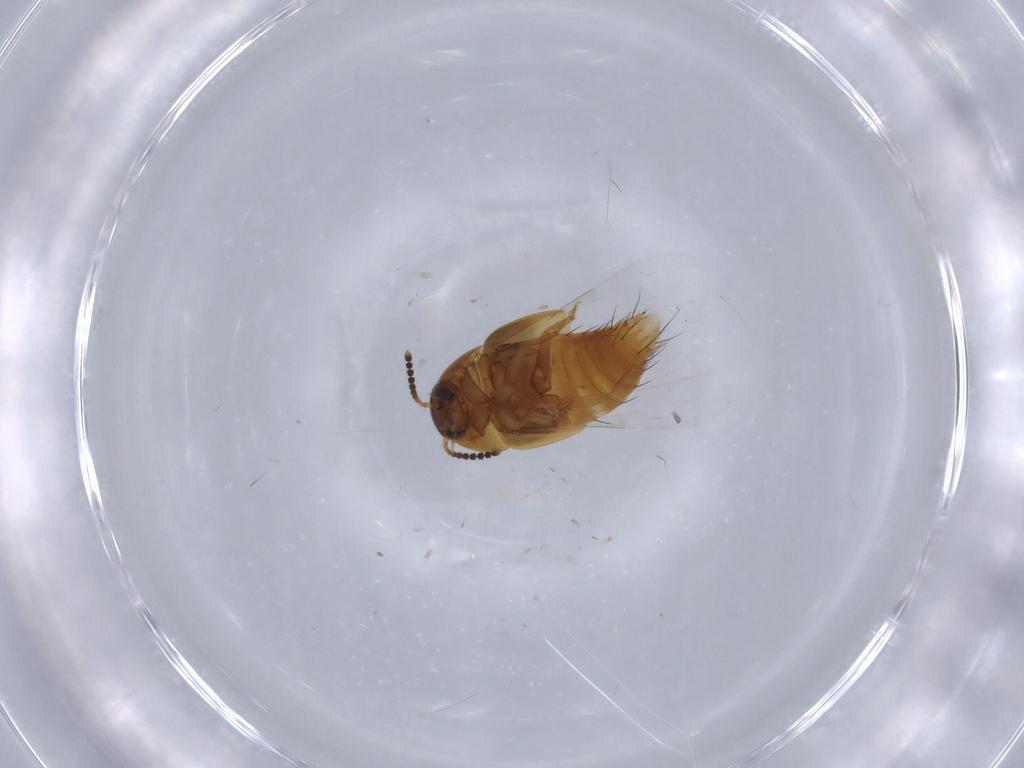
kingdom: Animalia
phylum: Arthropoda
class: Insecta
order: Coleoptera
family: Staphylinidae
